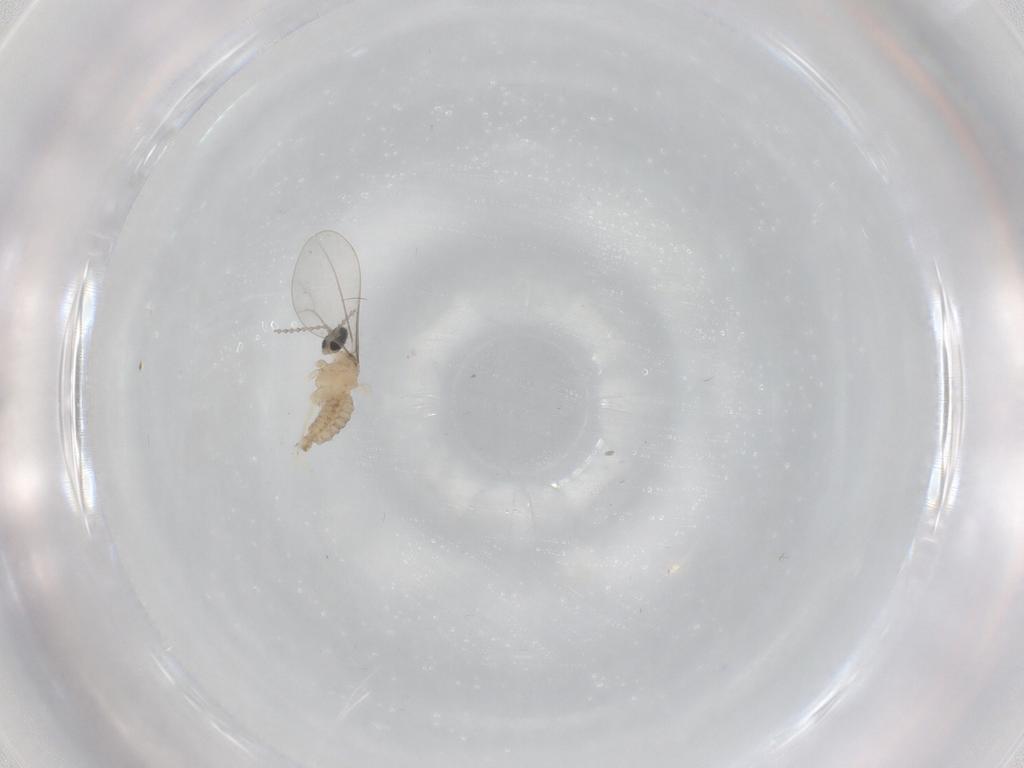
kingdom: Animalia
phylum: Arthropoda
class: Insecta
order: Diptera
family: Cecidomyiidae
